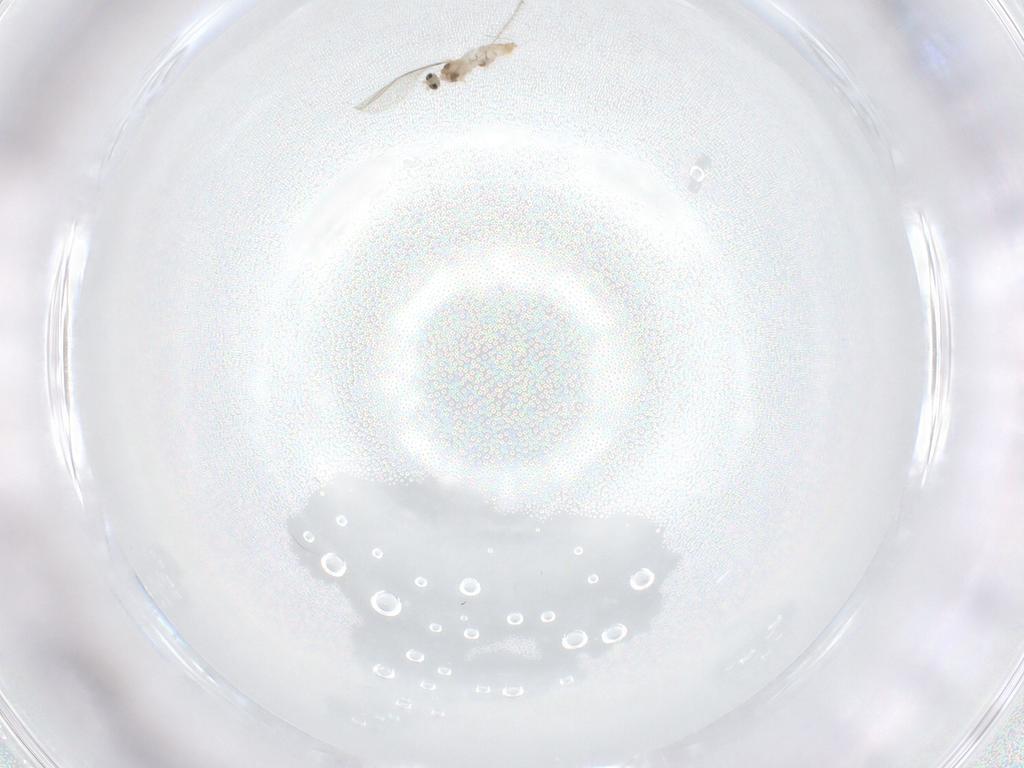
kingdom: Animalia
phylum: Arthropoda
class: Insecta
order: Diptera
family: Cecidomyiidae
